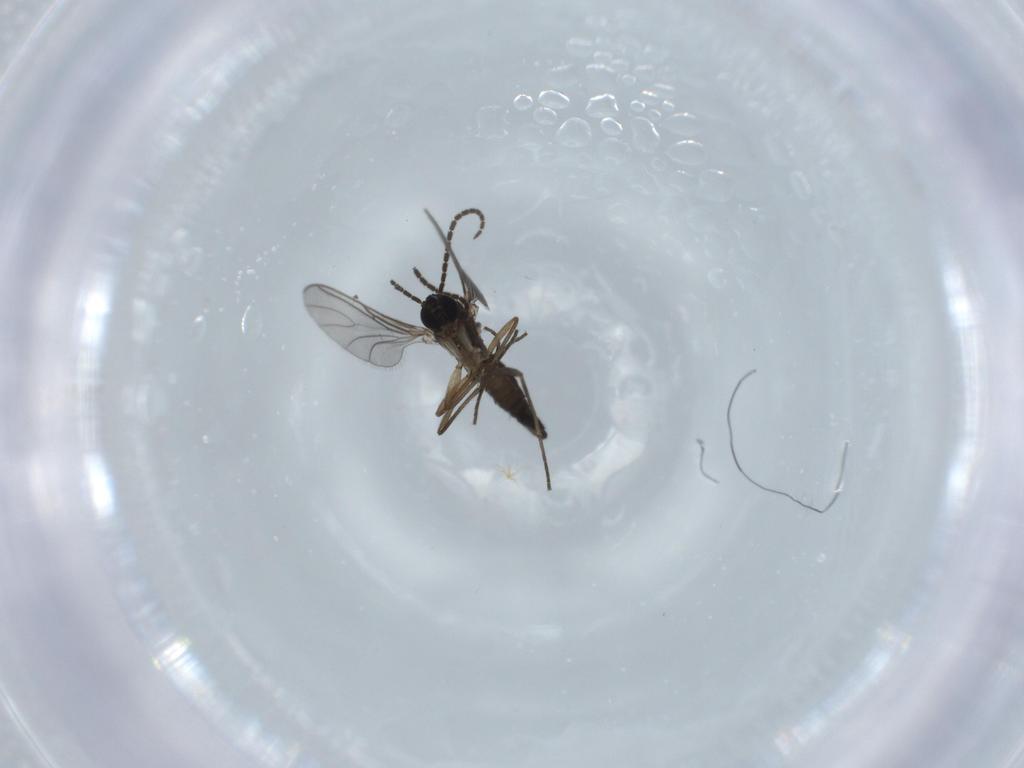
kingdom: Animalia
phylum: Arthropoda
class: Insecta
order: Diptera
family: Sciaridae
